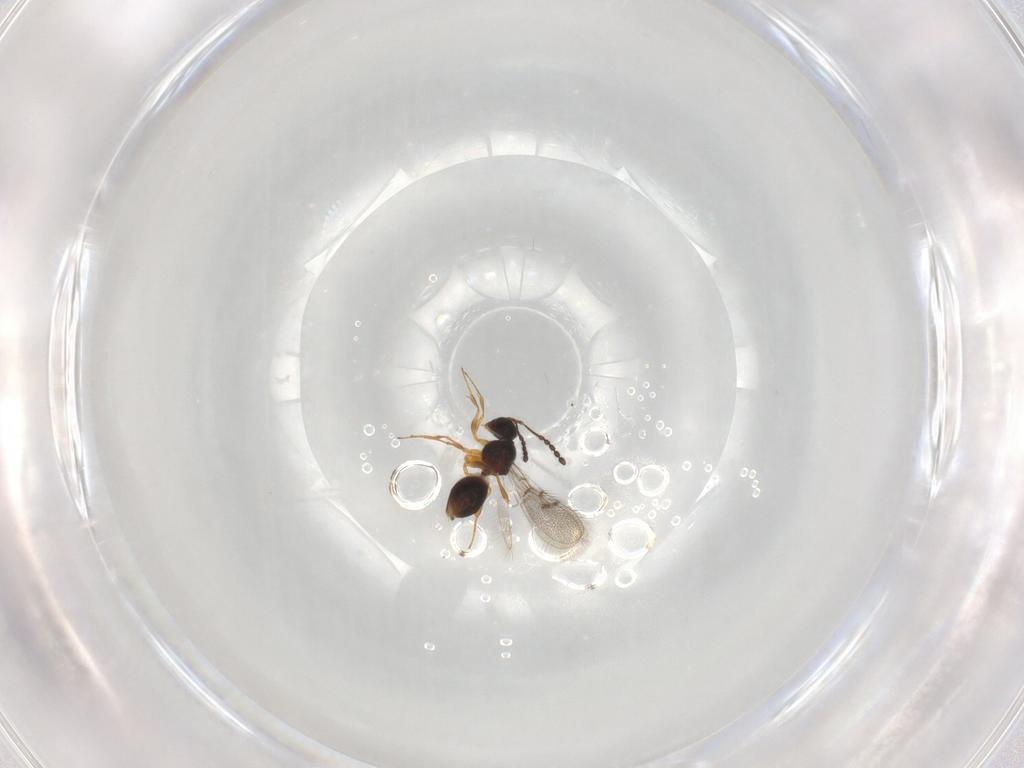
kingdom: Animalia
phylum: Arthropoda
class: Insecta
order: Hymenoptera
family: Figitidae
